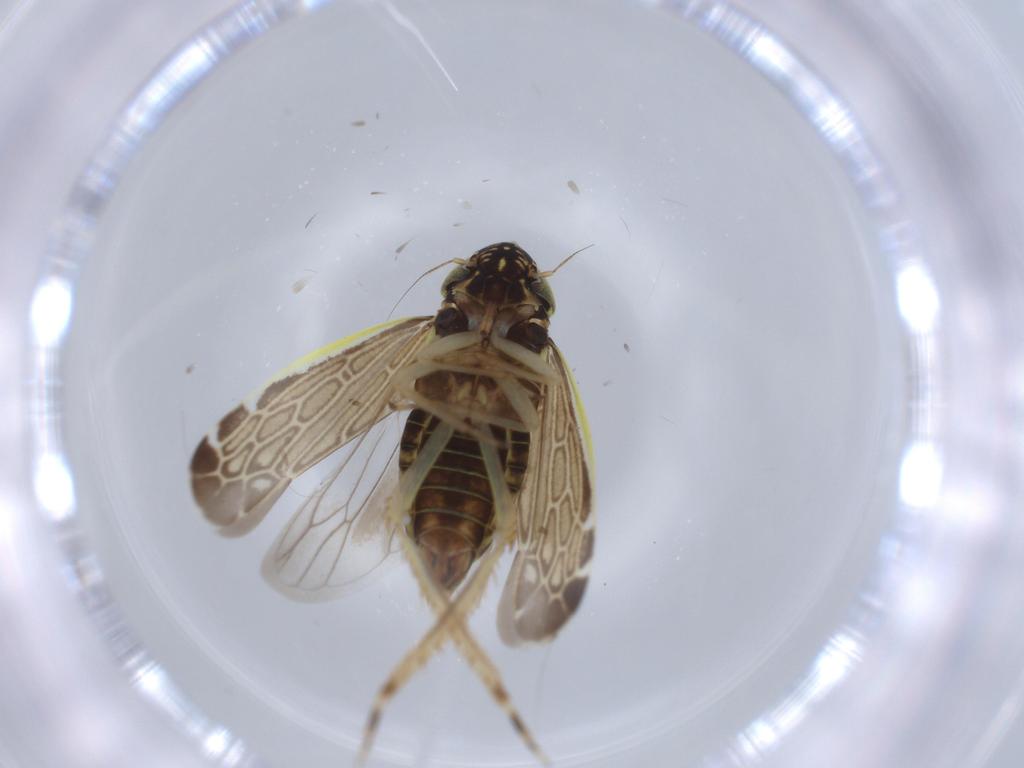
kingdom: Animalia
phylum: Arthropoda
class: Insecta
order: Hemiptera
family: Cicadellidae
